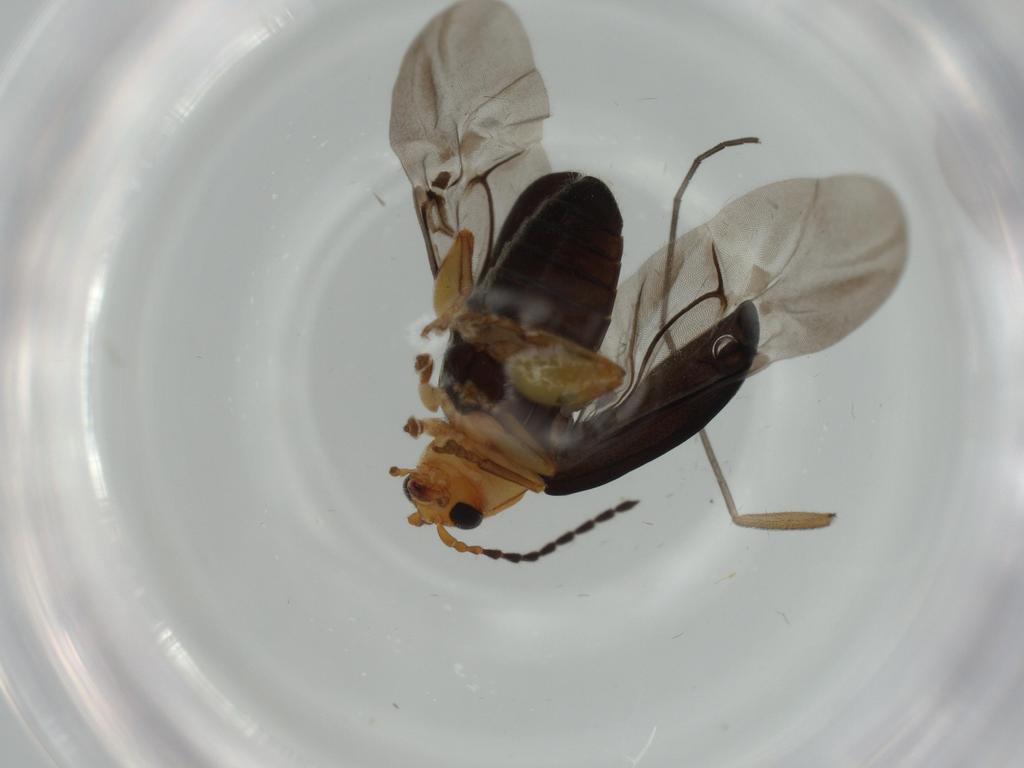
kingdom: Animalia
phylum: Arthropoda
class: Insecta
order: Coleoptera
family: Chrysomelidae
